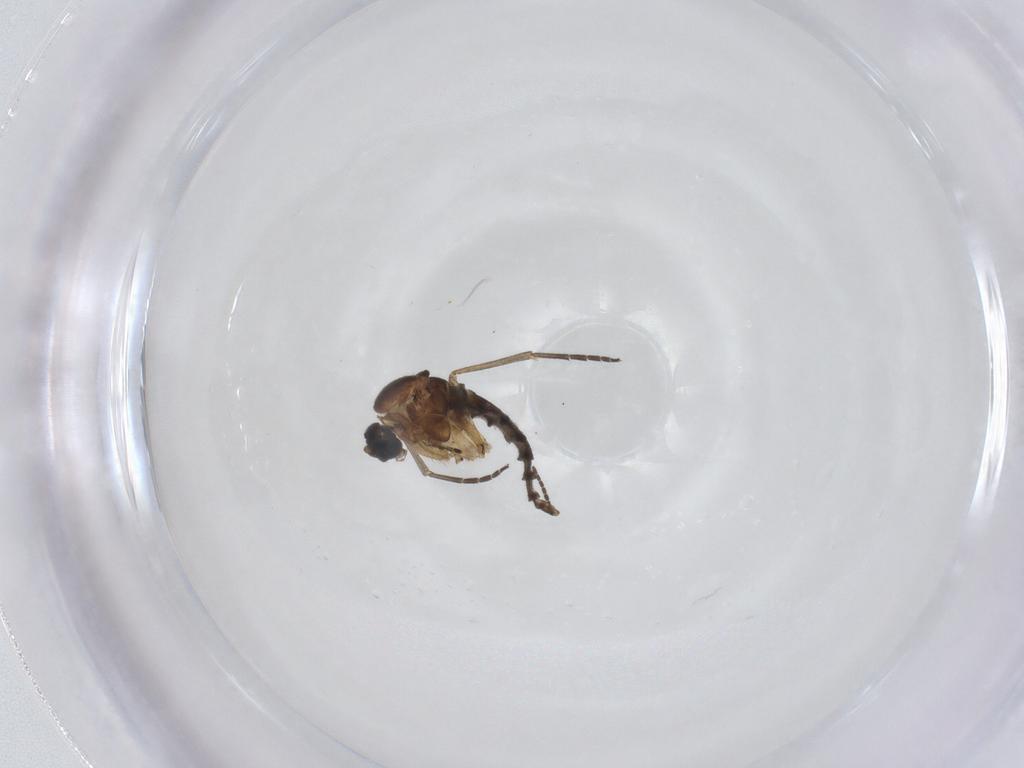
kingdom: Animalia
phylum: Arthropoda
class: Insecta
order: Diptera
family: Sciaridae
